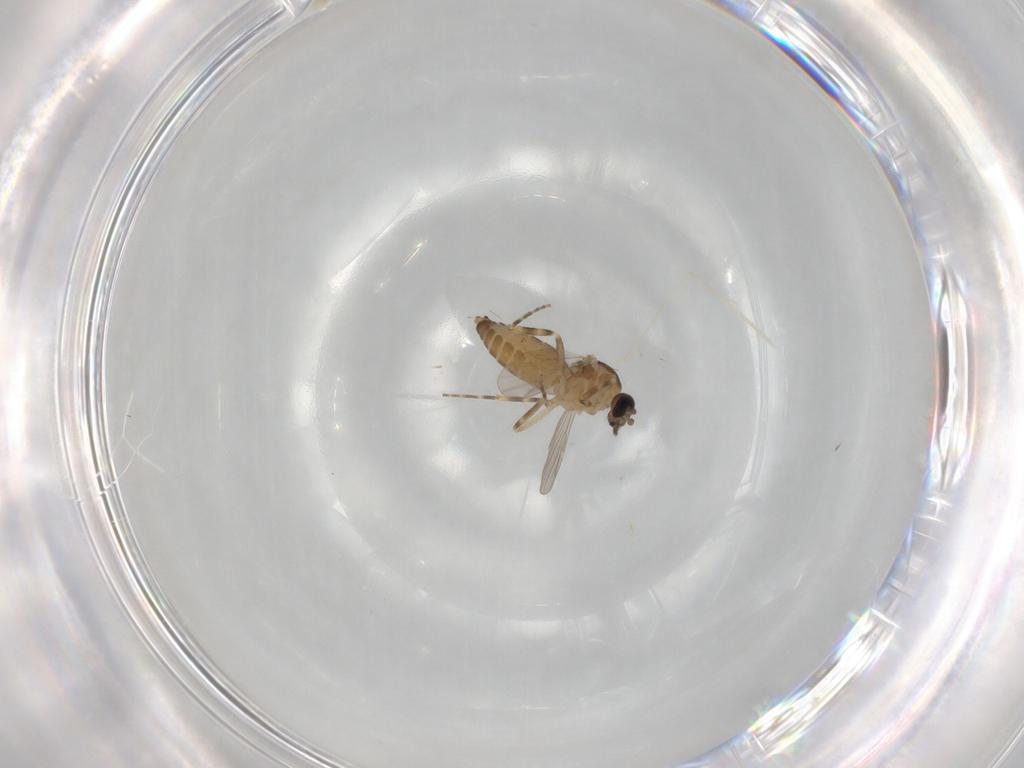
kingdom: Animalia
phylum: Arthropoda
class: Insecta
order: Diptera
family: Ceratopogonidae
